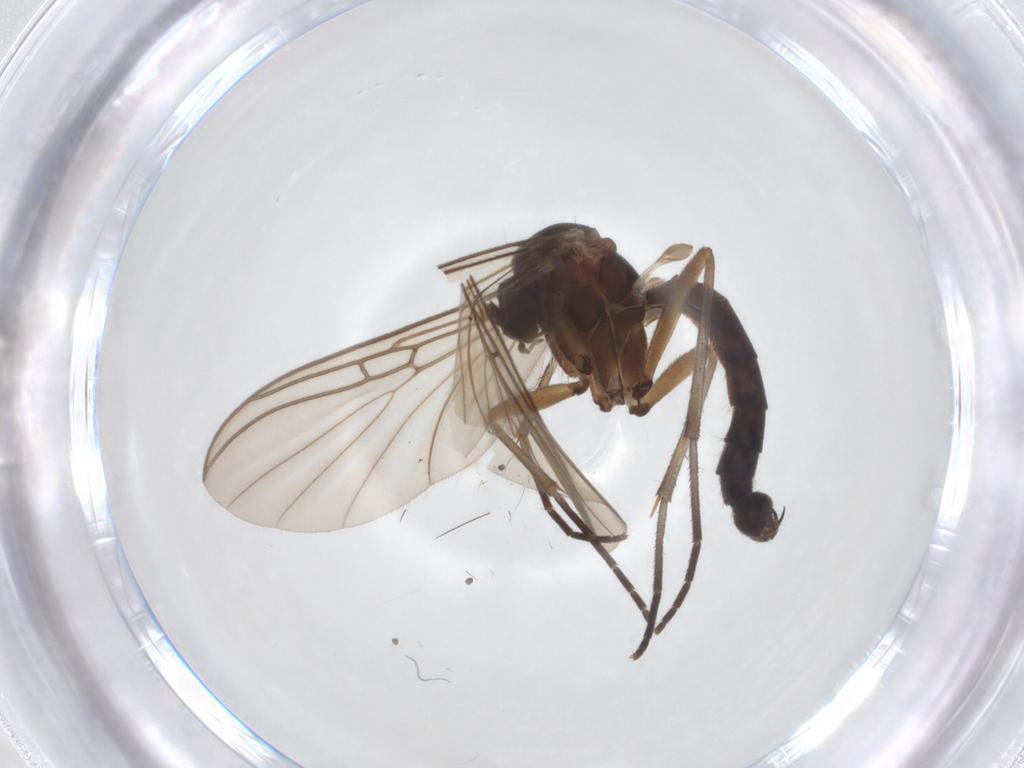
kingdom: Animalia
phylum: Arthropoda
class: Insecta
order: Diptera
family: Mycetophilidae
